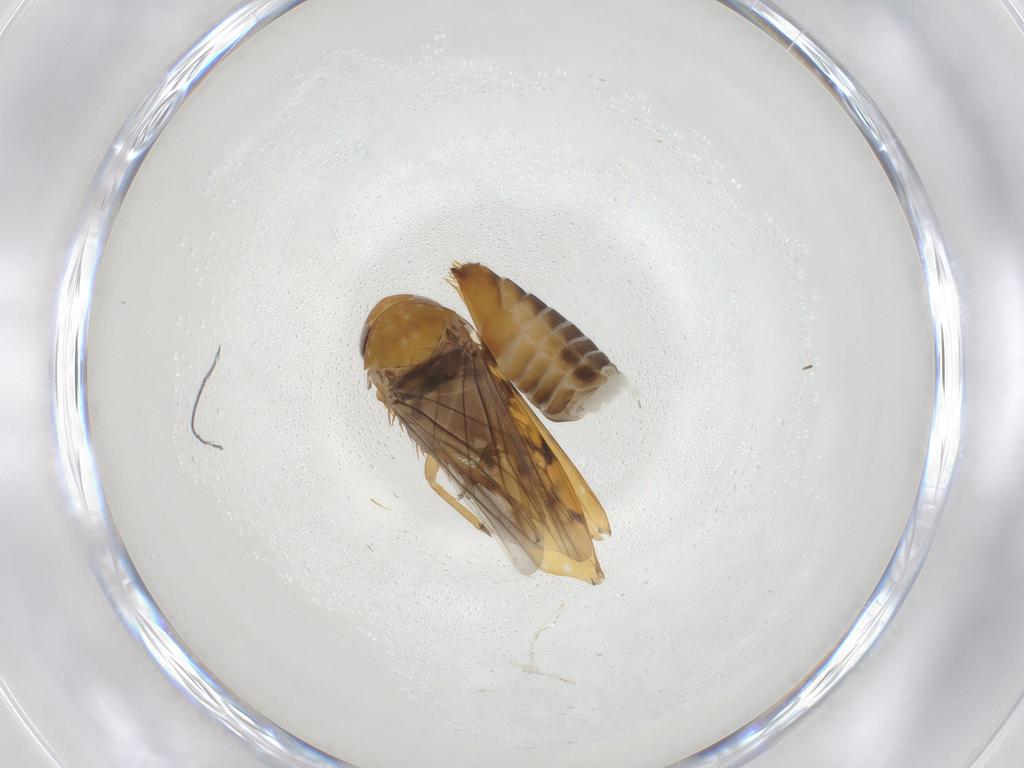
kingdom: Animalia
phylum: Arthropoda
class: Insecta
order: Hemiptera
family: Cicadellidae
